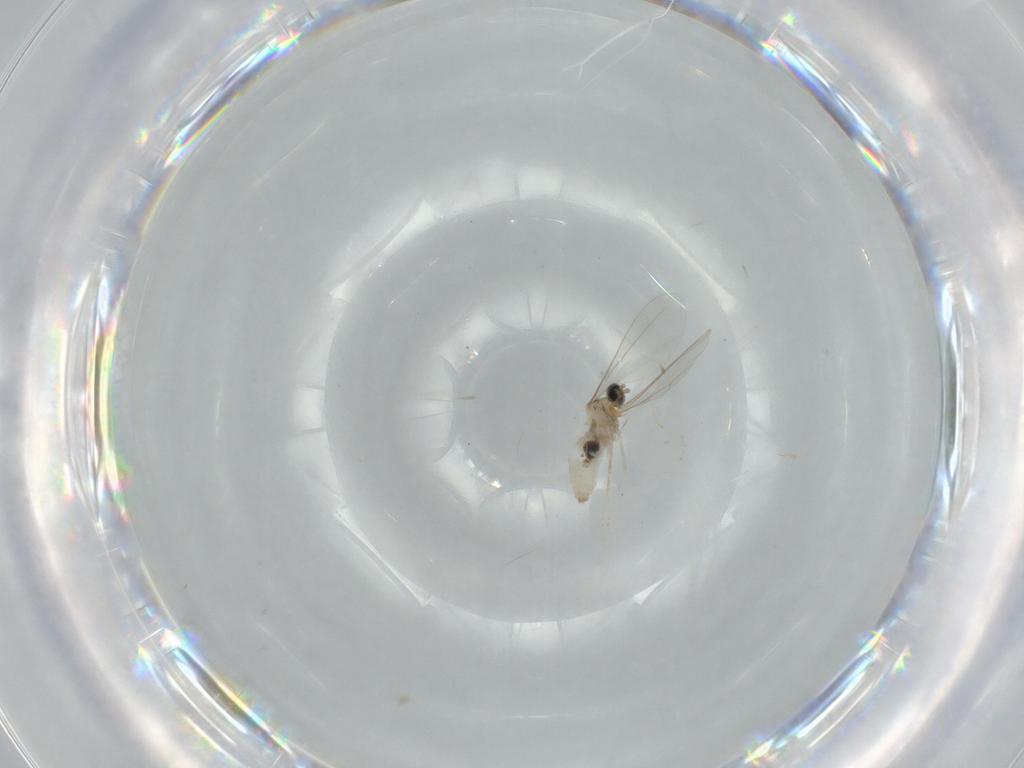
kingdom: Animalia
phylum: Arthropoda
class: Insecta
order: Diptera
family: Cecidomyiidae
